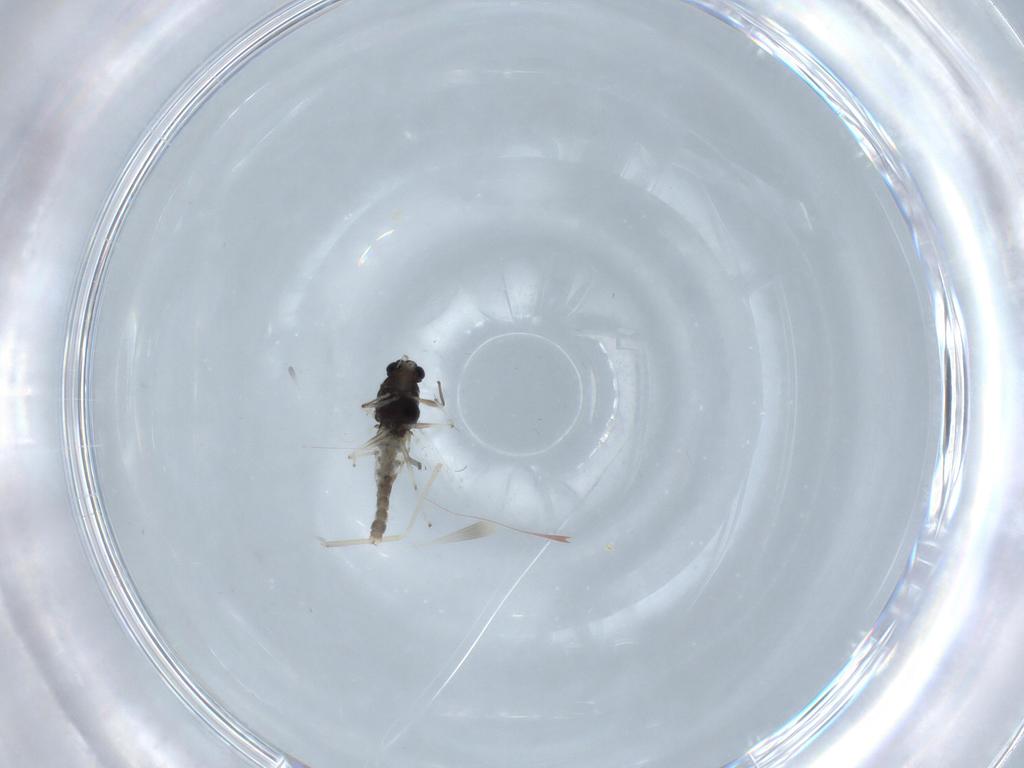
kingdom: Animalia
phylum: Arthropoda
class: Insecta
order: Diptera
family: Chironomidae
